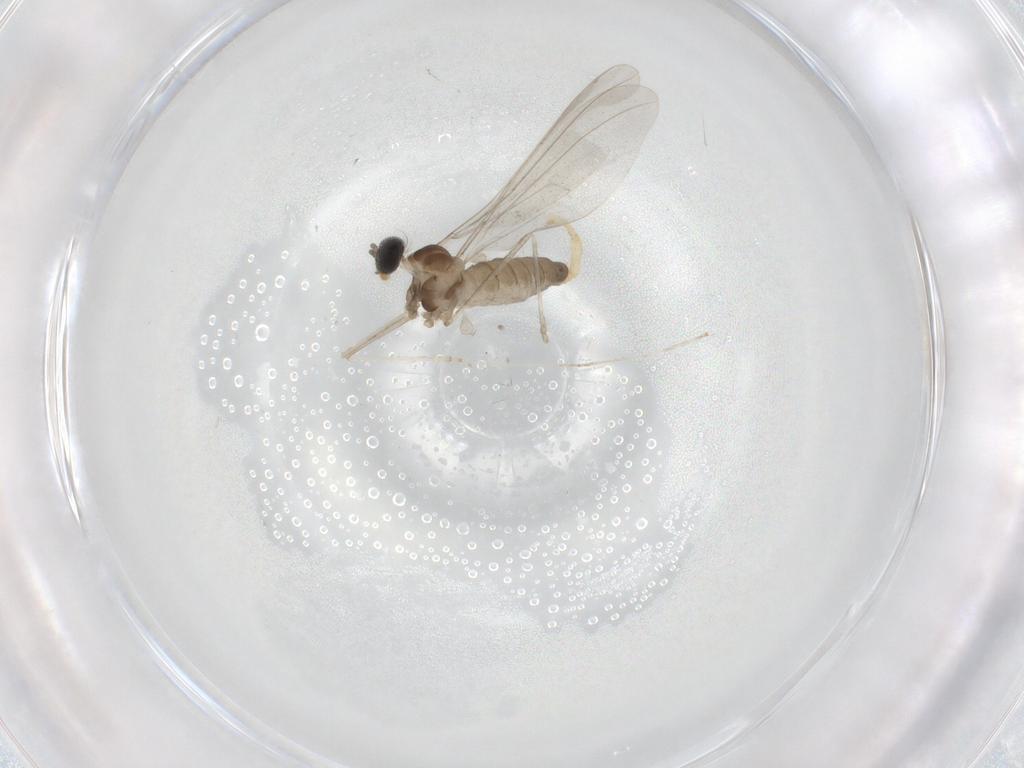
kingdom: Animalia
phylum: Arthropoda
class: Insecta
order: Diptera
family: Cecidomyiidae
